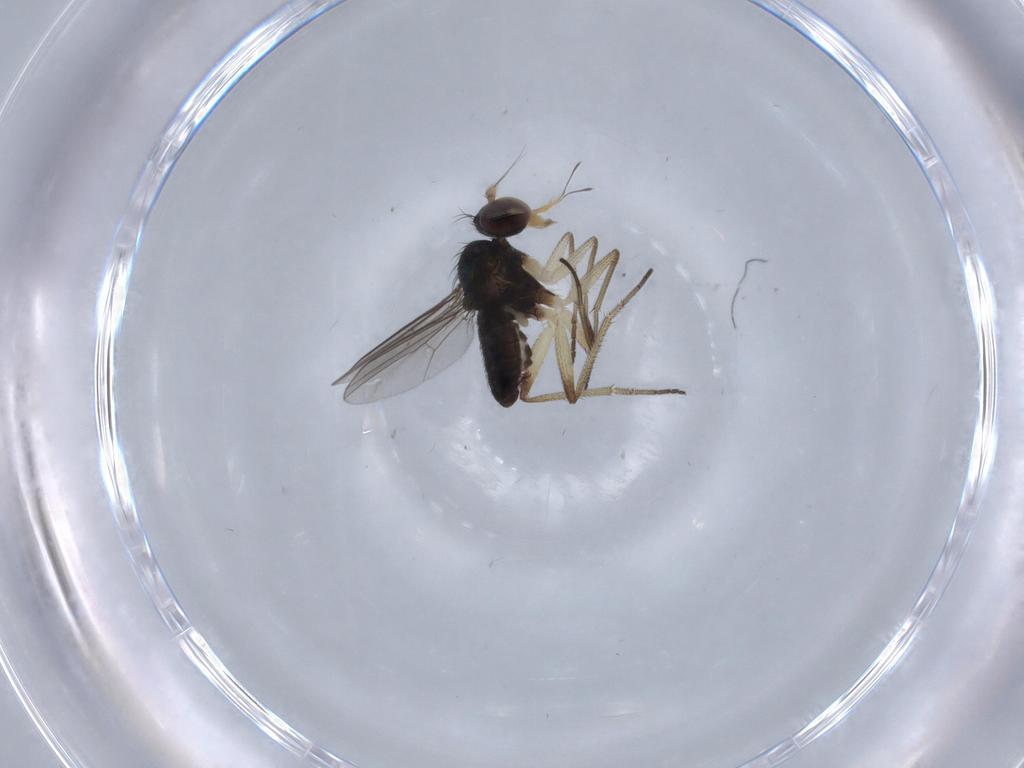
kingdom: Animalia
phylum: Arthropoda
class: Insecta
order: Diptera
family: Dolichopodidae
